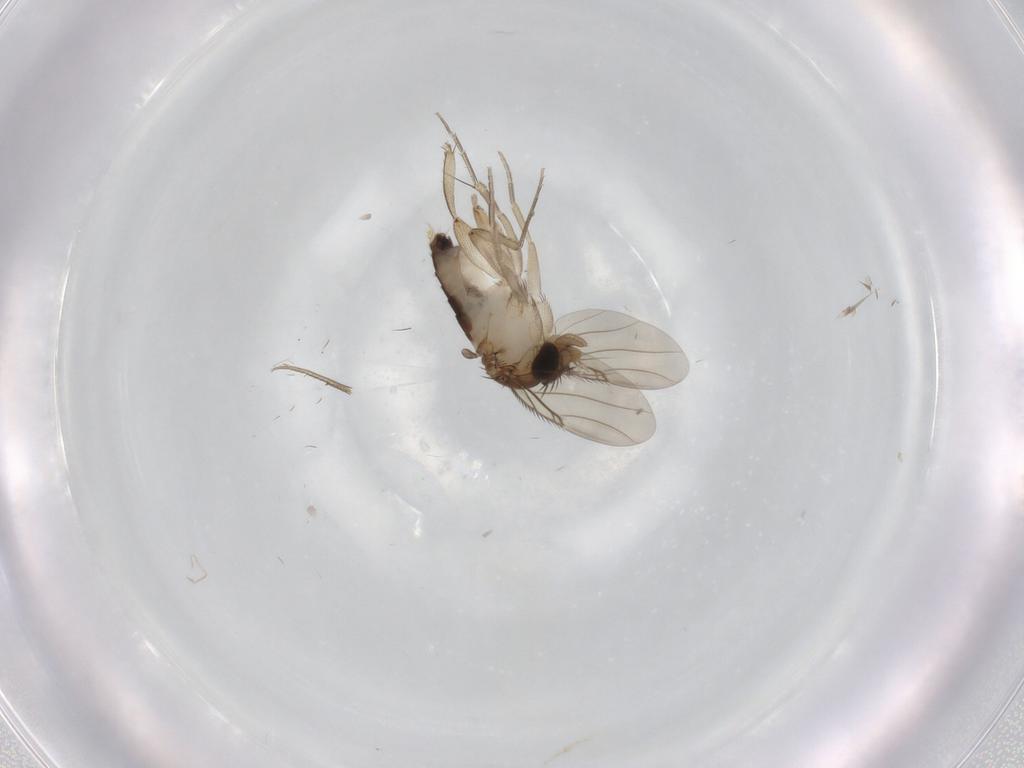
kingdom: Animalia
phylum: Arthropoda
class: Insecta
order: Diptera
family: Phoridae
